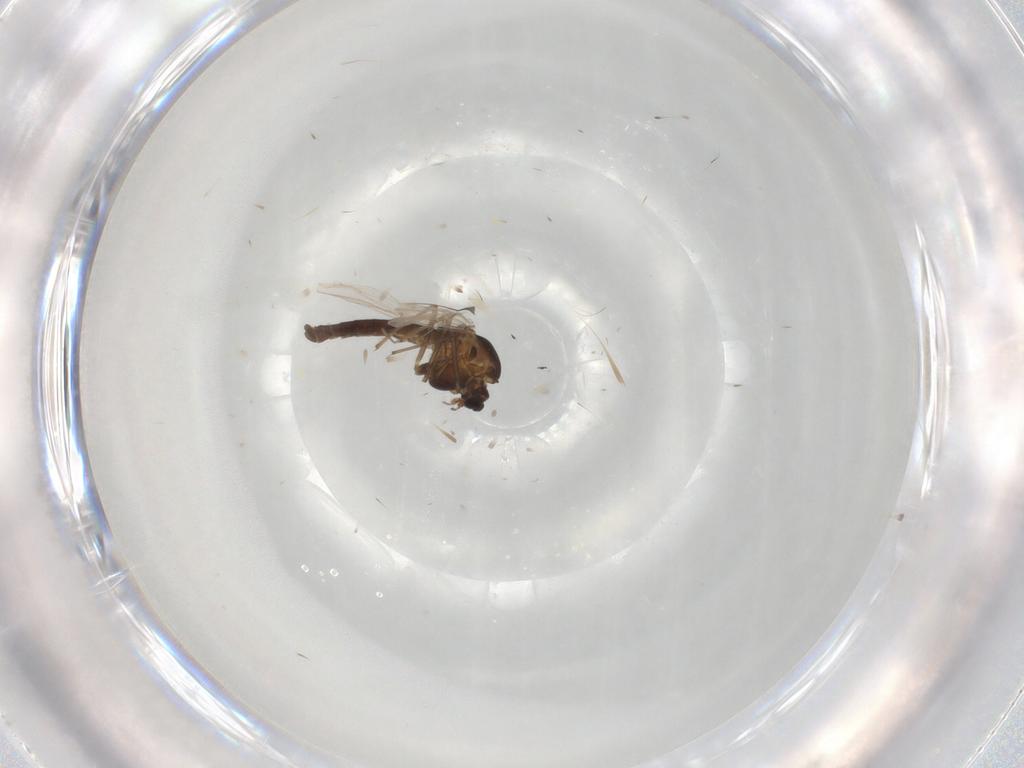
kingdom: Animalia
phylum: Arthropoda
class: Insecta
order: Diptera
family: Chironomidae
